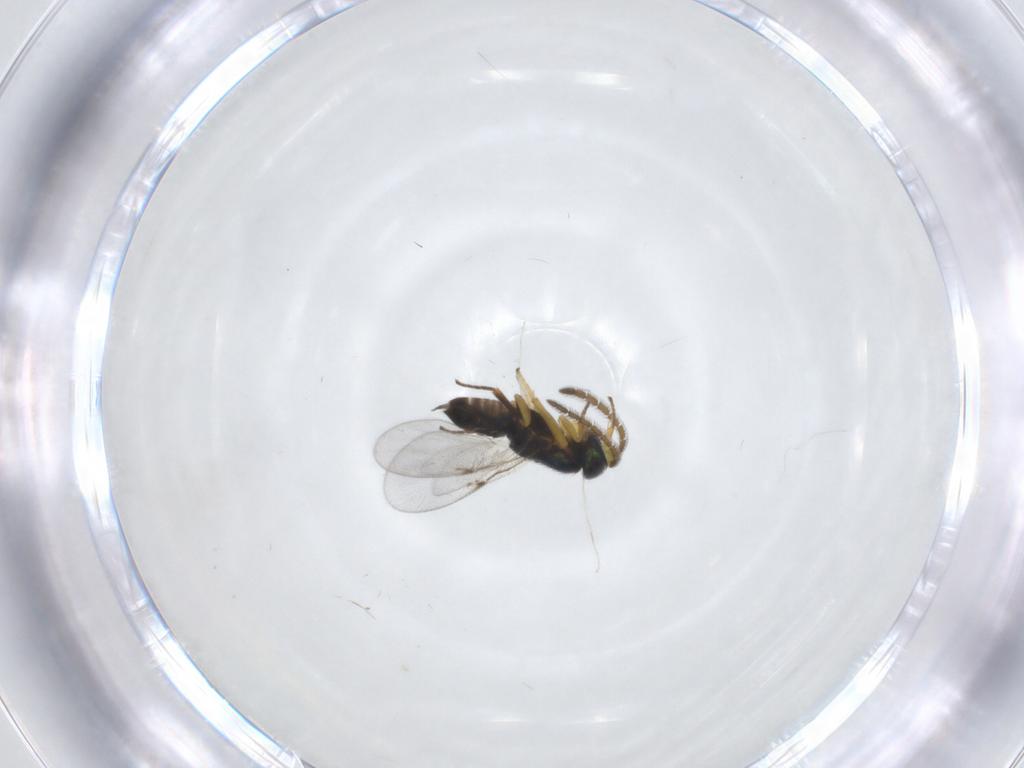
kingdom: Animalia
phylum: Arthropoda
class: Insecta
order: Hymenoptera
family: Encyrtidae
